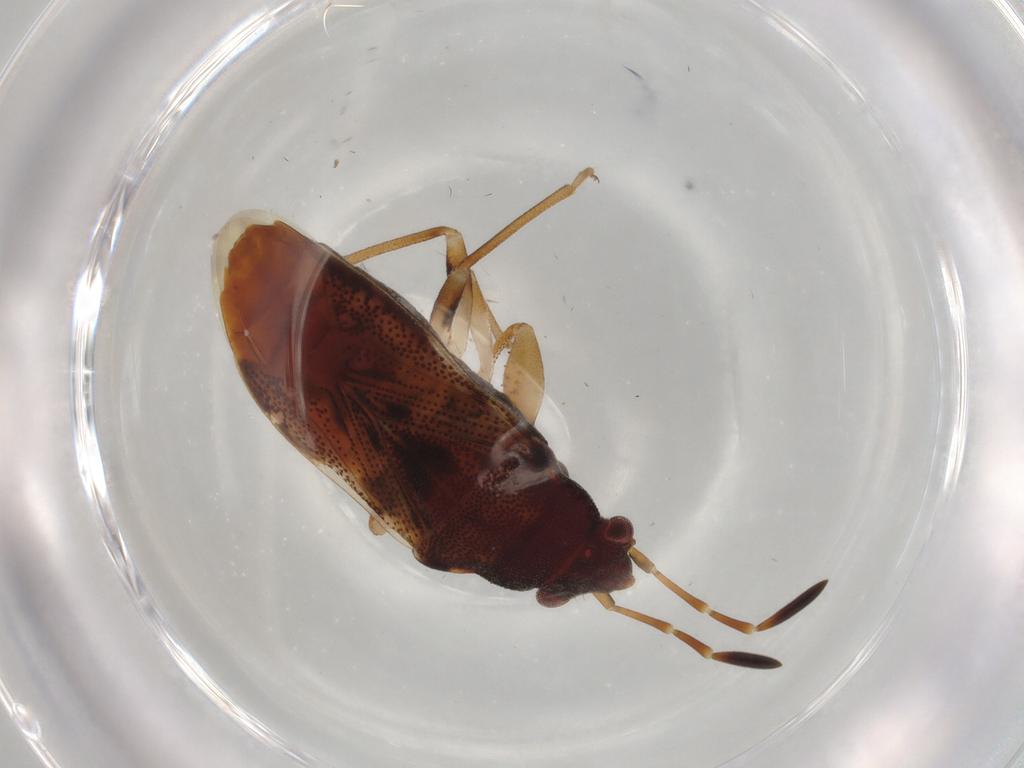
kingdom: Animalia
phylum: Arthropoda
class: Insecta
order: Hemiptera
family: Rhyparochromidae
